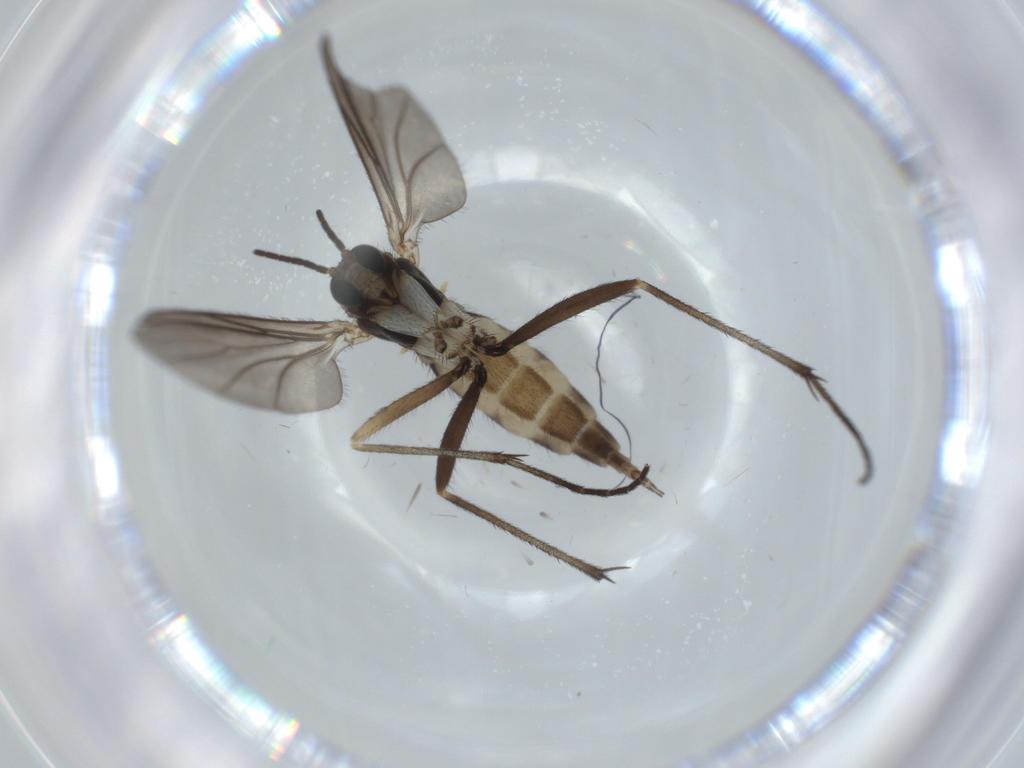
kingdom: Animalia
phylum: Arthropoda
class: Insecta
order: Diptera
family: Sciaridae
